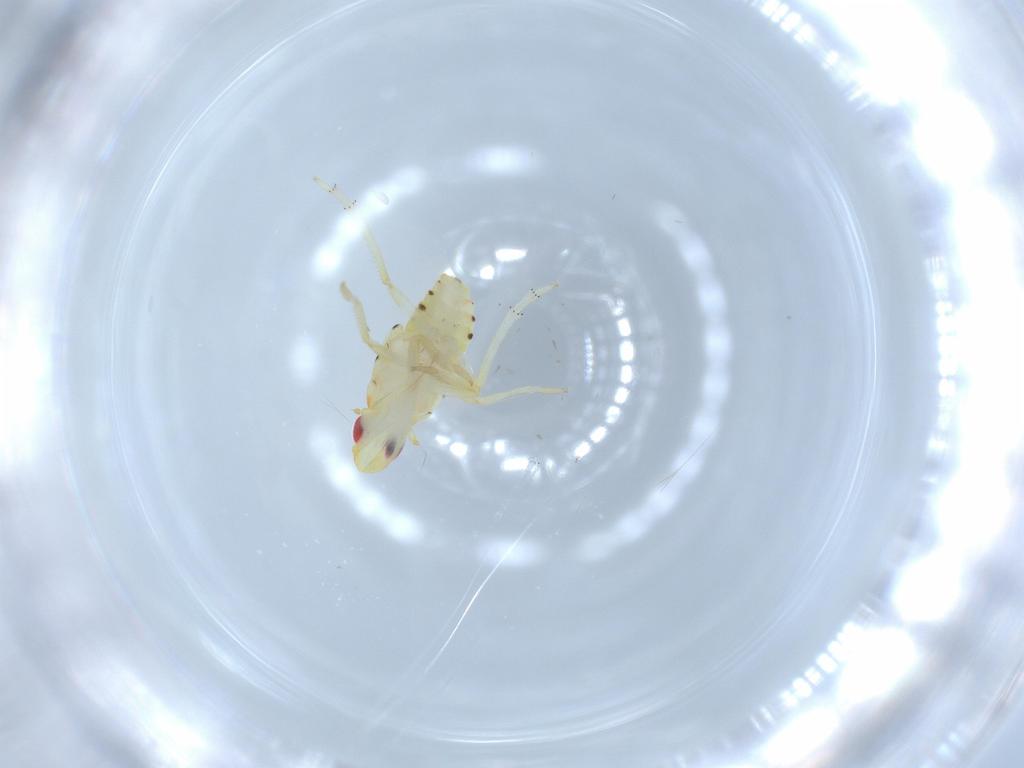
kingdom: Animalia
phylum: Arthropoda
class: Insecta
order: Hemiptera
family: Tropiduchidae
